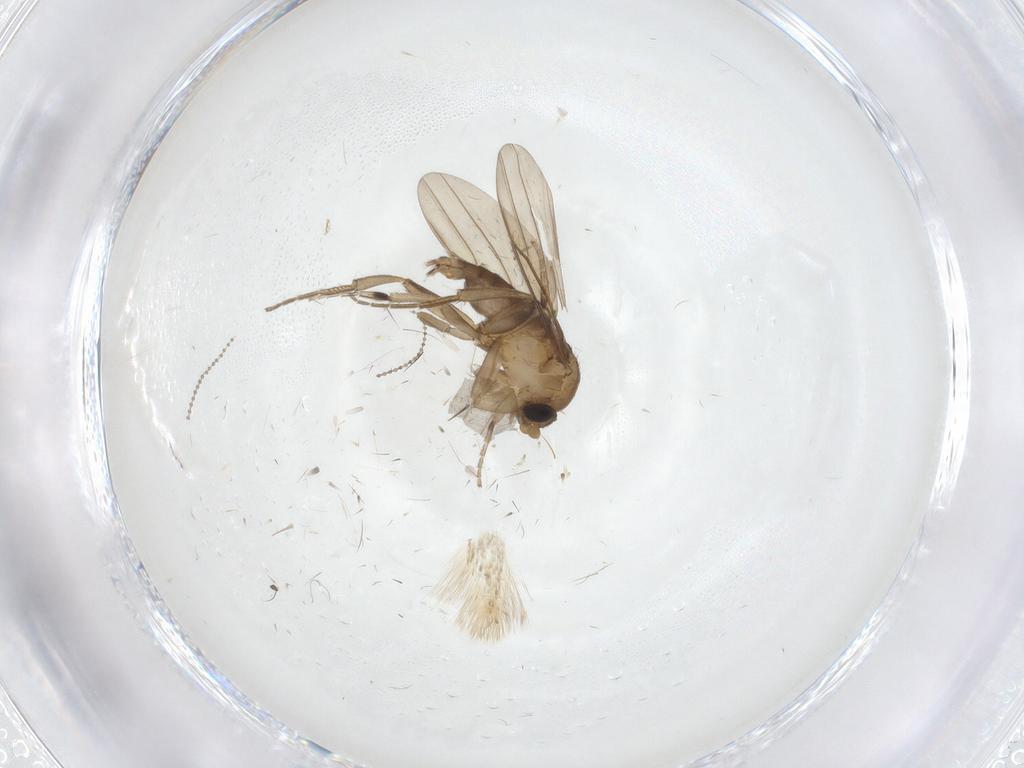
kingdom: Animalia
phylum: Arthropoda
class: Insecta
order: Diptera
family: Phoridae
